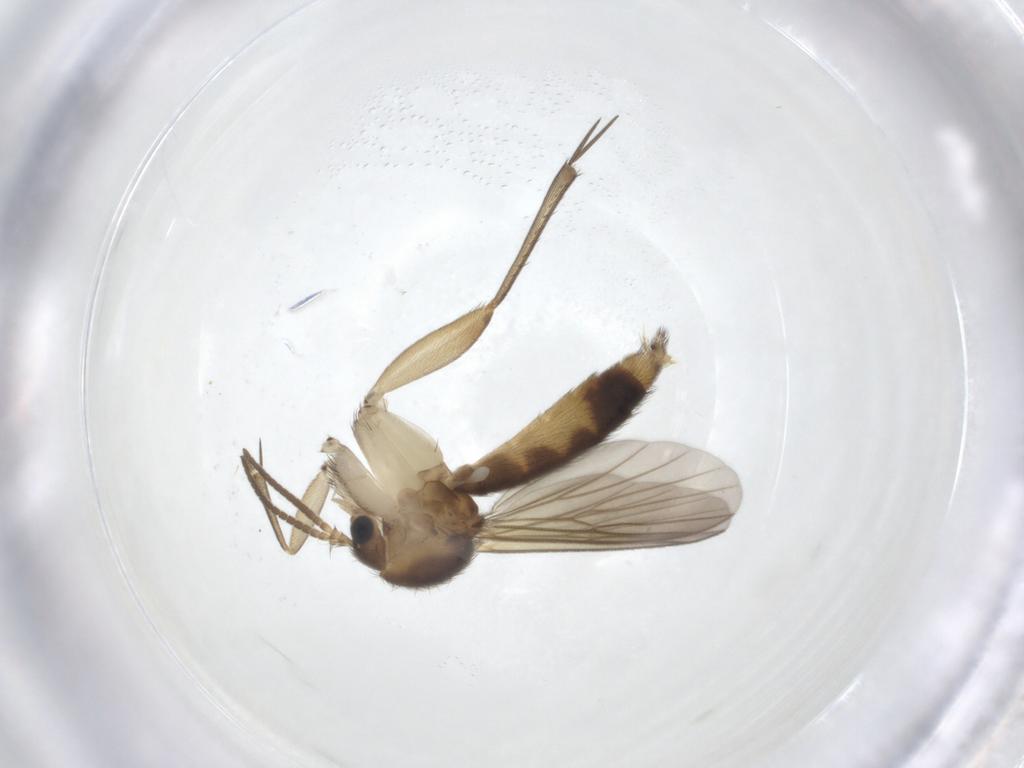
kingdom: Animalia
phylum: Arthropoda
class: Insecta
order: Diptera
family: Mycetophilidae
